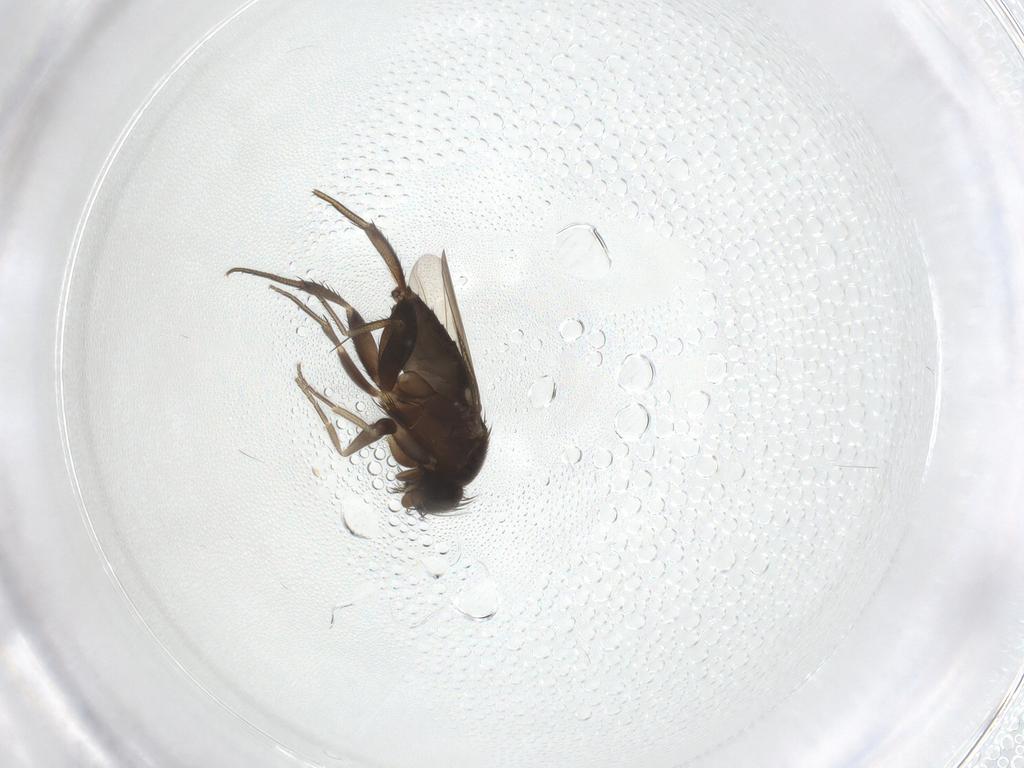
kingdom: Animalia
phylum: Arthropoda
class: Insecta
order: Diptera
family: Phoridae
